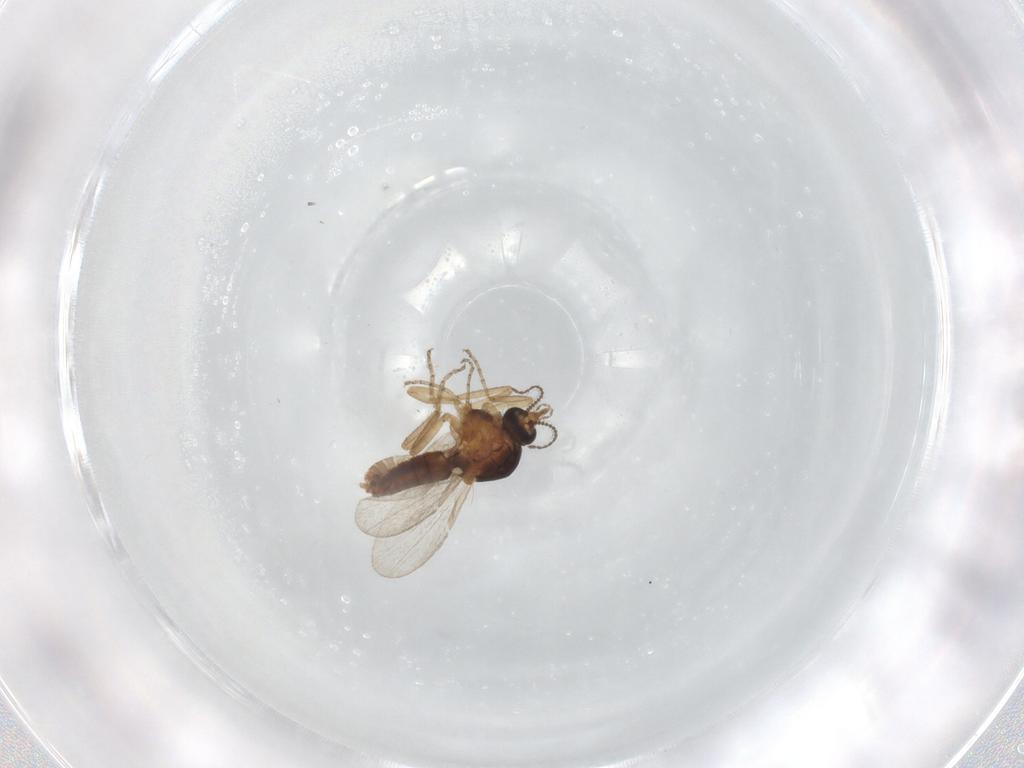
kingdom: Animalia
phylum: Arthropoda
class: Insecta
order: Diptera
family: Ceratopogonidae
